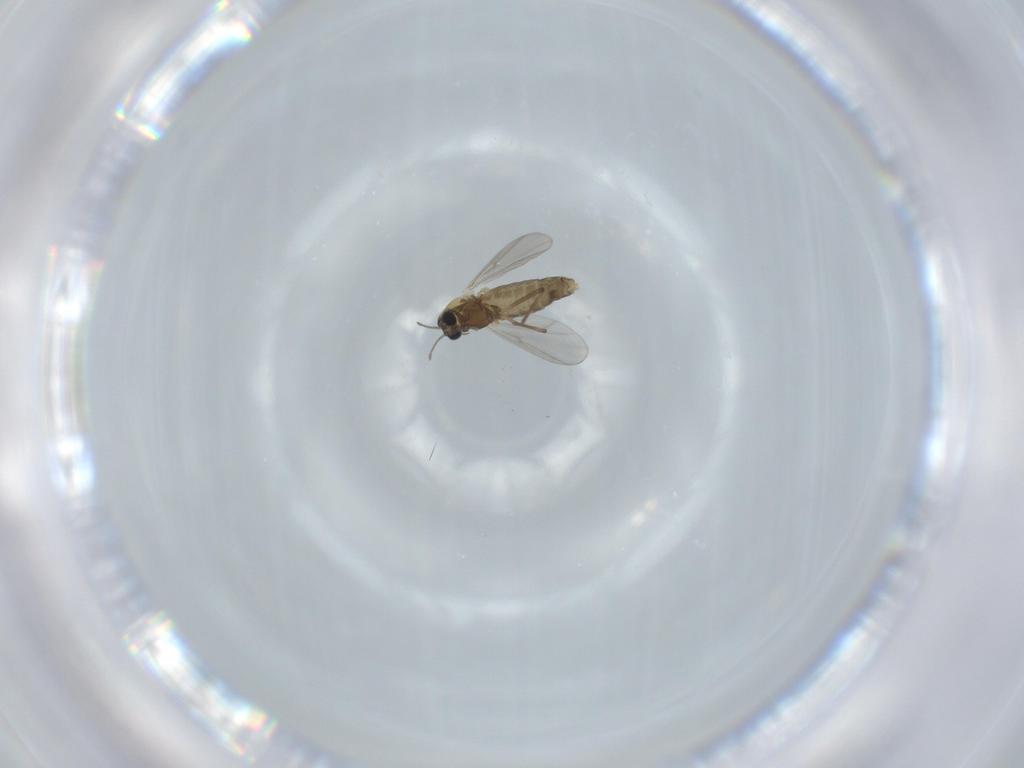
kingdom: Animalia
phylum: Arthropoda
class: Insecta
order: Diptera
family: Chironomidae
